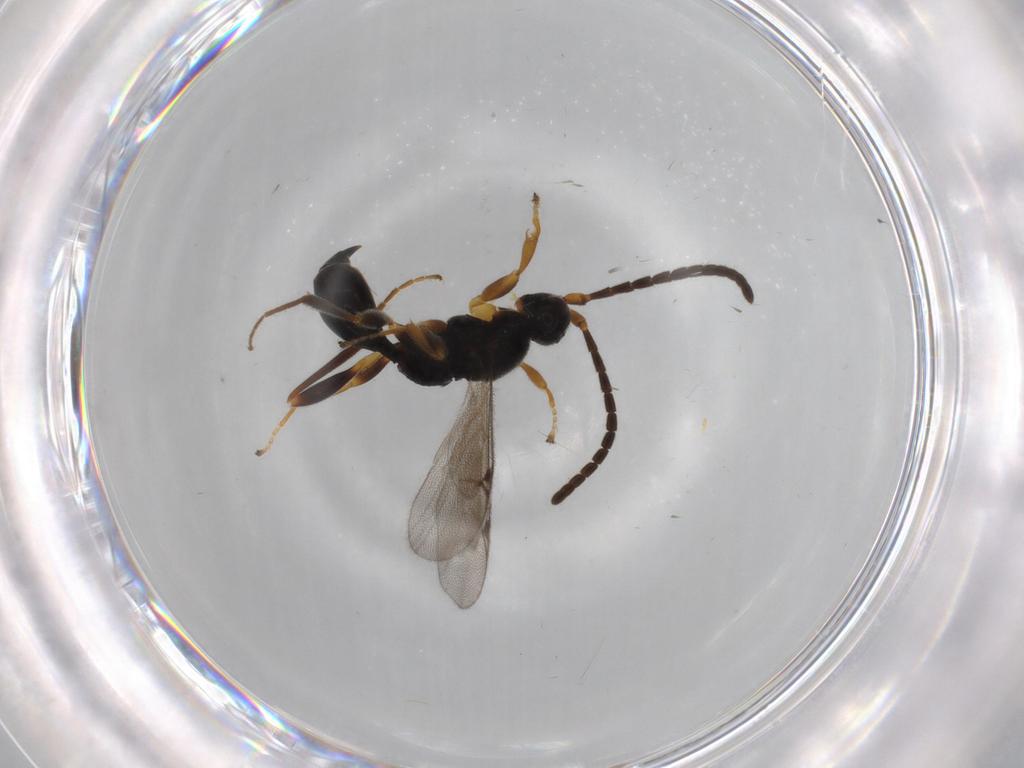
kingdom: Animalia
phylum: Arthropoda
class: Insecta
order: Hymenoptera
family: Proctotrupidae
